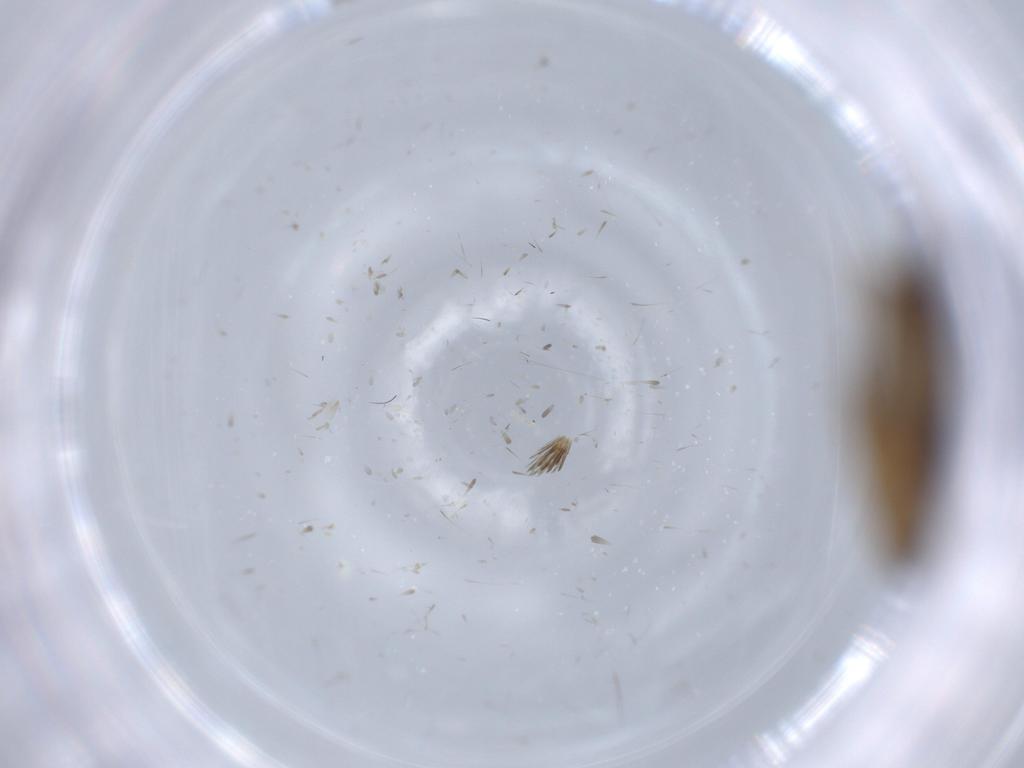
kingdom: Animalia
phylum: Arthropoda
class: Insecta
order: Lepidoptera
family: Tineidae
